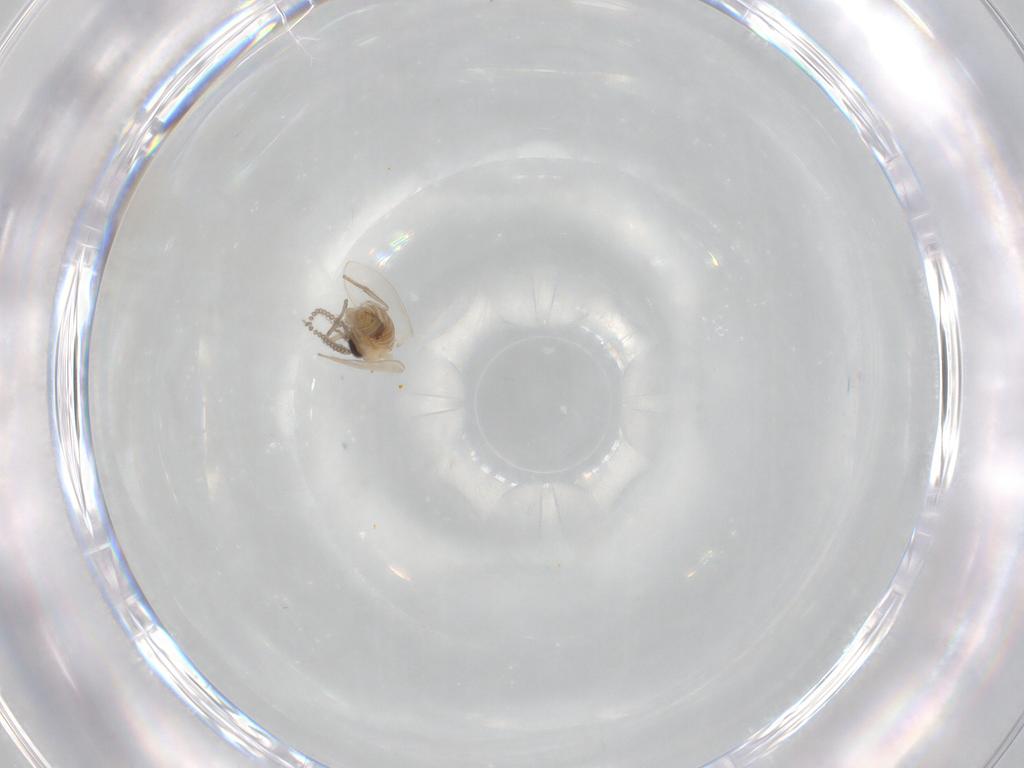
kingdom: Animalia
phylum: Arthropoda
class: Insecta
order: Diptera
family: Psychodidae
